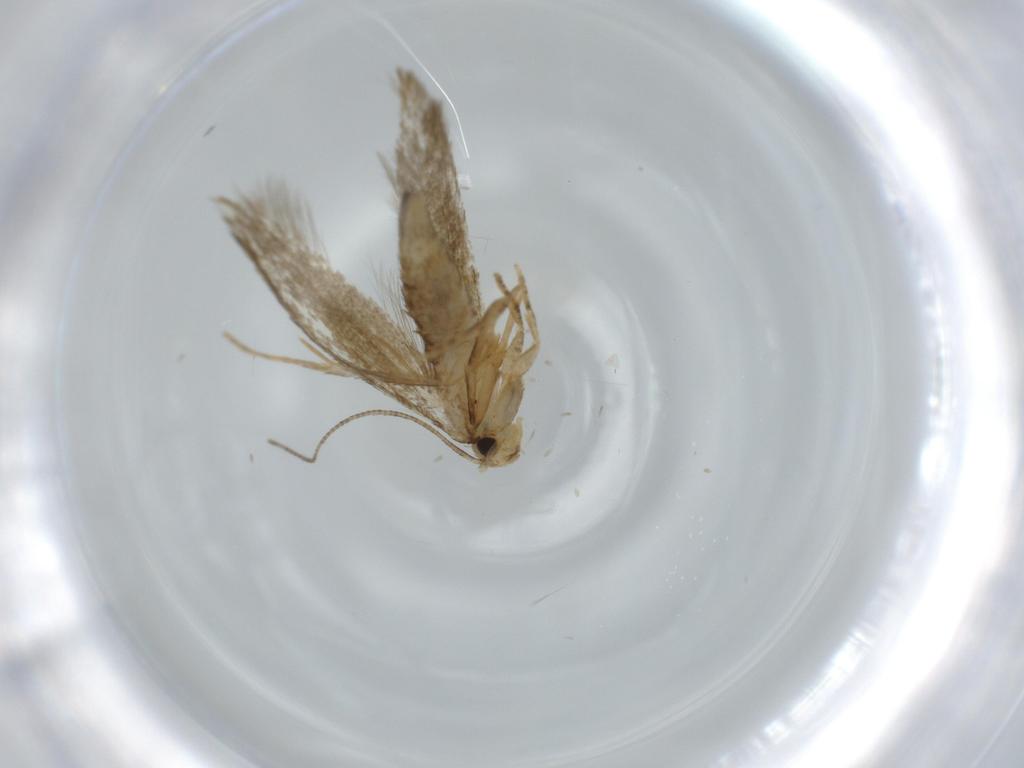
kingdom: Animalia
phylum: Arthropoda
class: Insecta
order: Lepidoptera
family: Tineidae
